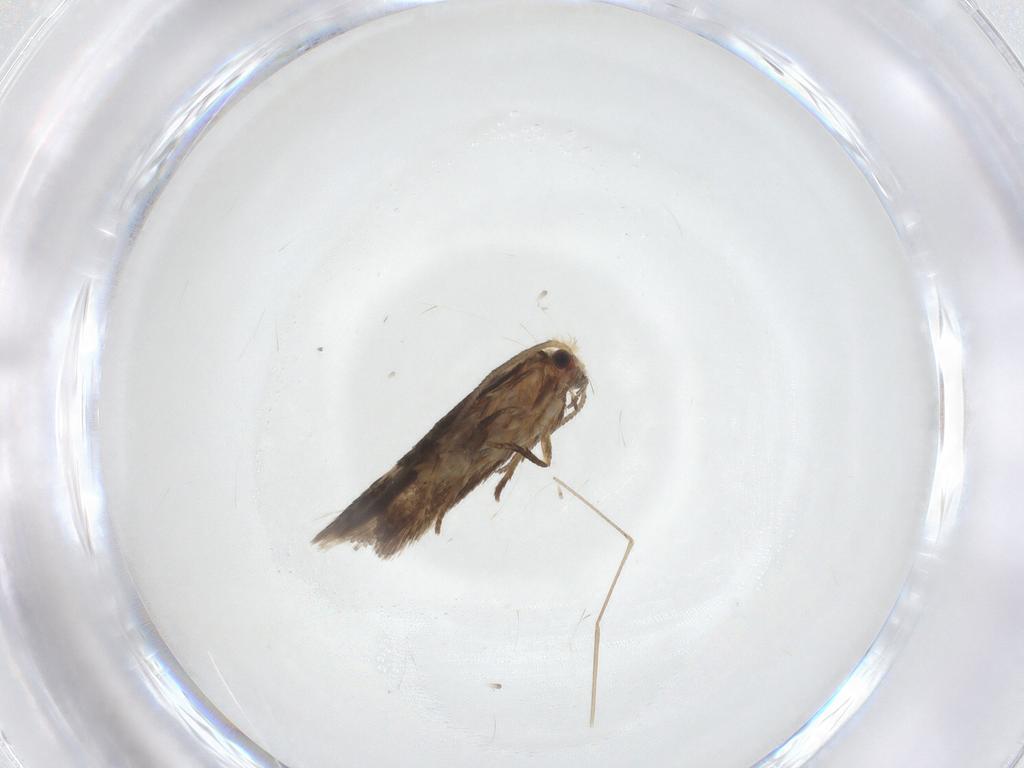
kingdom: Animalia
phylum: Arthropoda
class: Insecta
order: Lepidoptera
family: Nepticulidae
